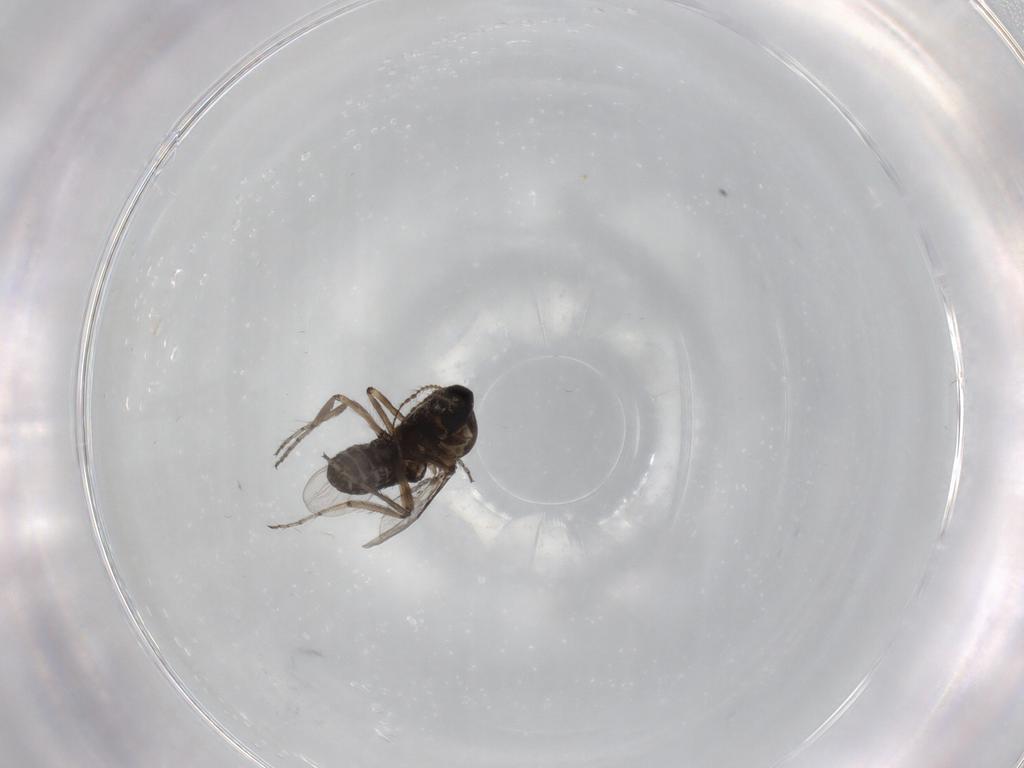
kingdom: Animalia
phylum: Arthropoda
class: Insecta
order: Diptera
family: Ceratopogonidae
